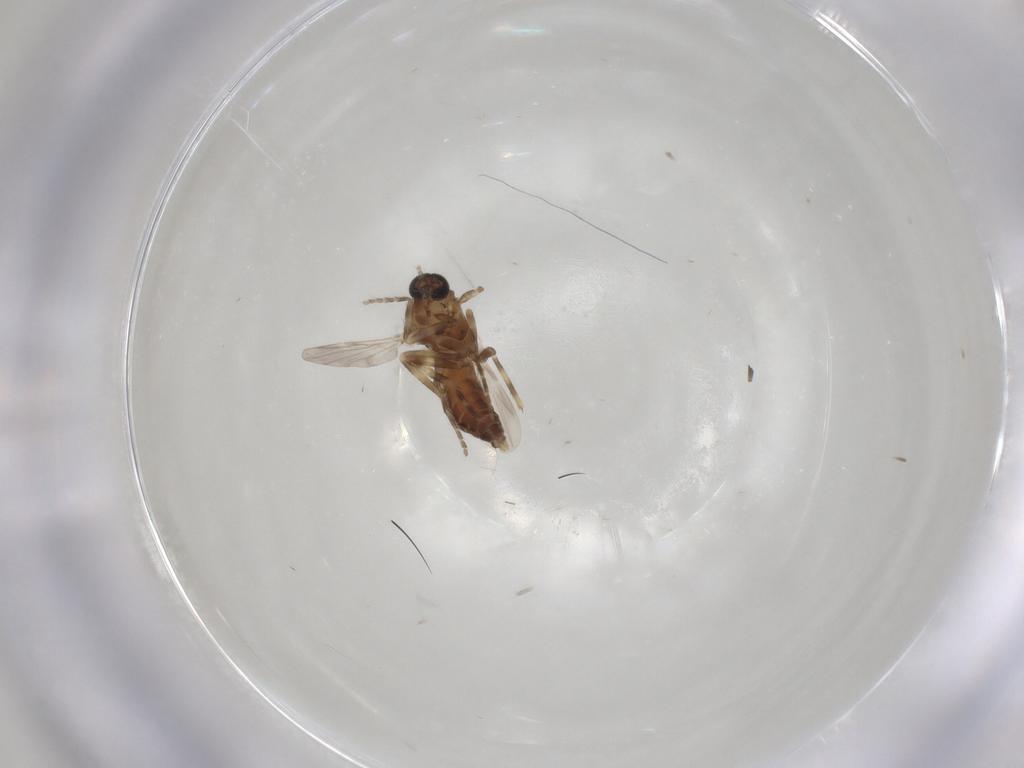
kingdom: Animalia
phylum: Arthropoda
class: Insecta
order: Diptera
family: Ceratopogonidae
